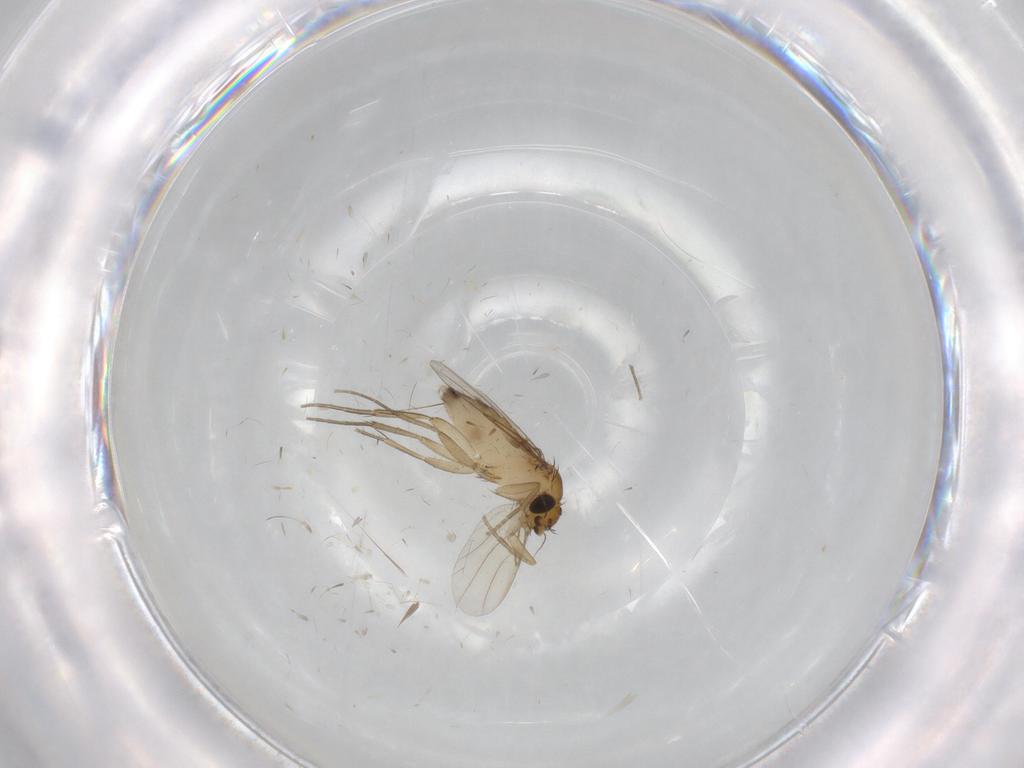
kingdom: Animalia
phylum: Arthropoda
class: Insecta
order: Diptera
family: Phoridae
